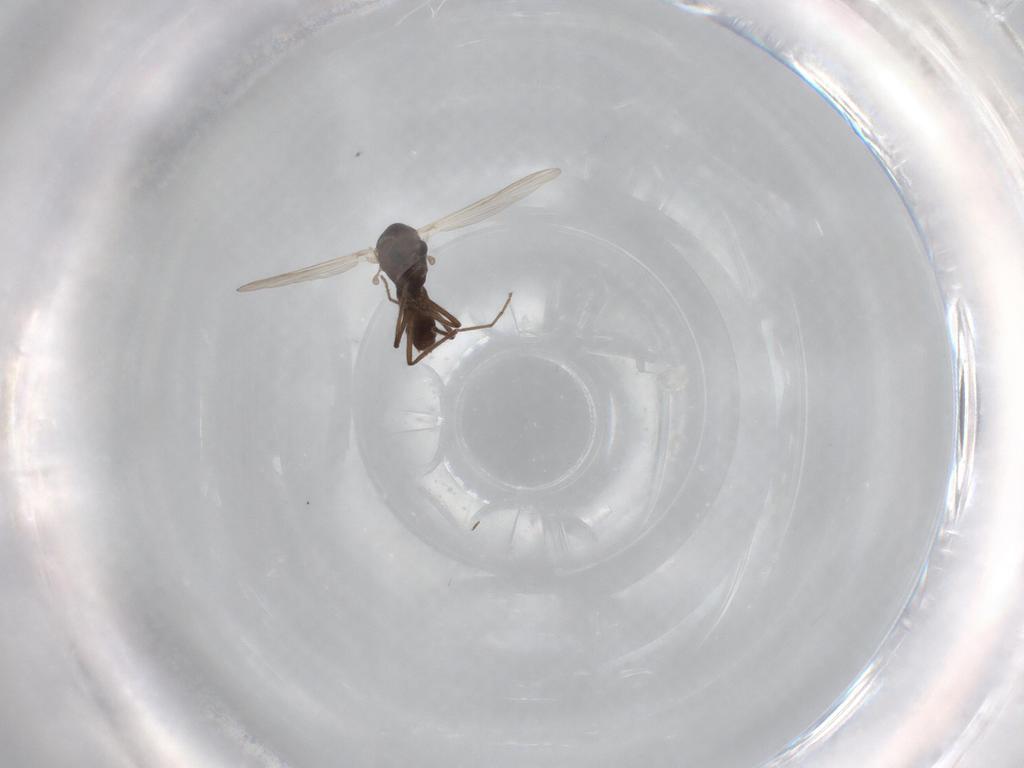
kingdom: Animalia
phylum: Arthropoda
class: Insecta
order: Diptera
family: Chironomidae
